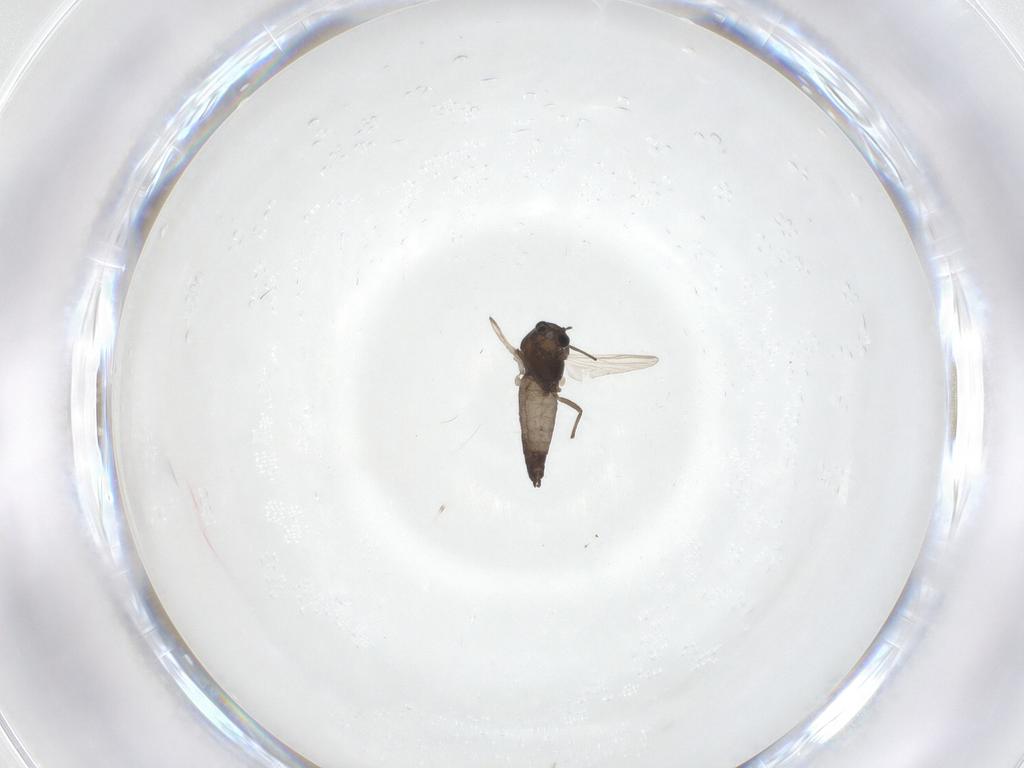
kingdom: Animalia
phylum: Arthropoda
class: Insecta
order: Diptera
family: Chironomidae
